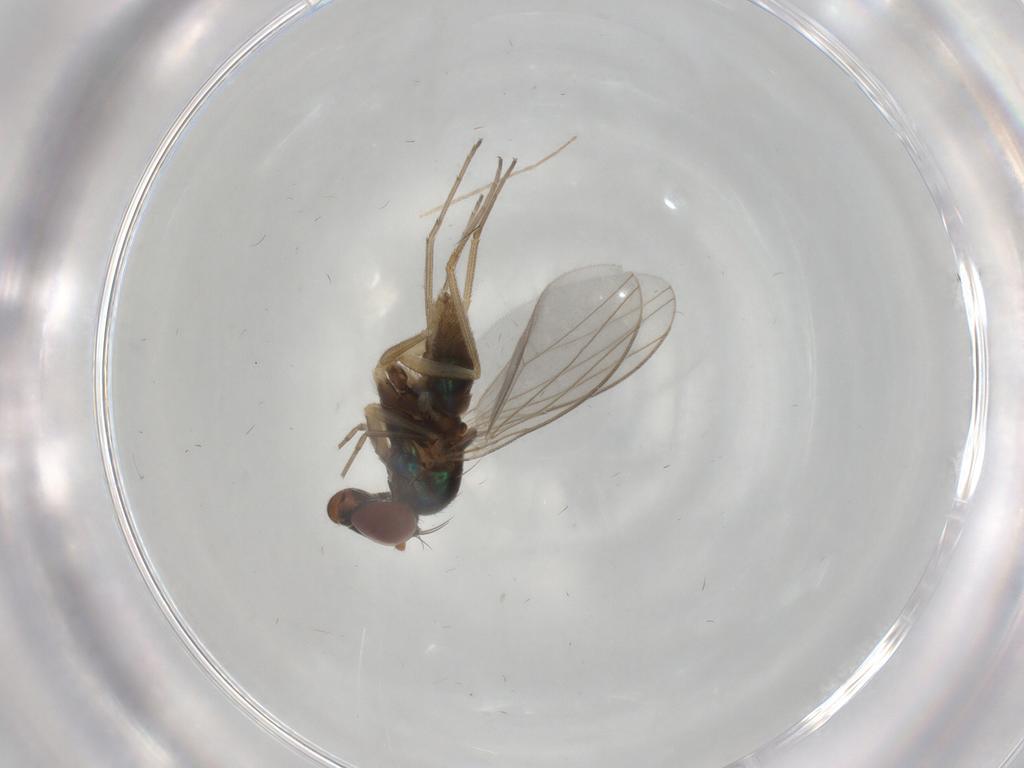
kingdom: Animalia
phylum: Arthropoda
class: Insecta
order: Diptera
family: Dolichopodidae
